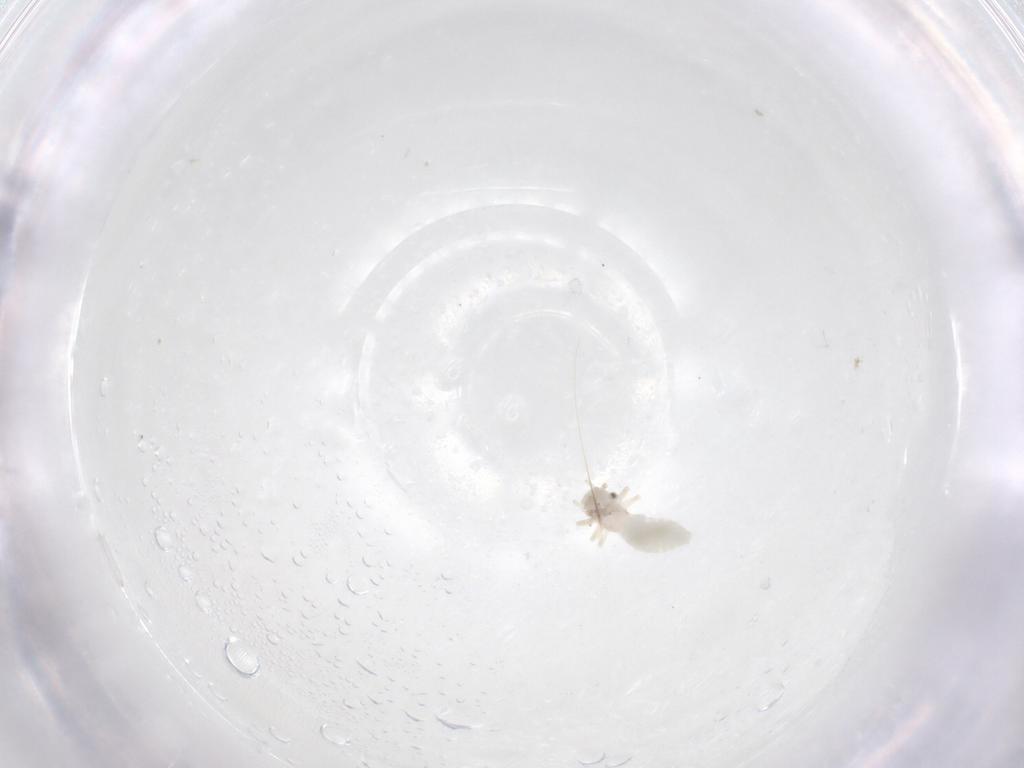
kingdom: Animalia
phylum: Arthropoda
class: Insecta
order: Psocodea
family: Caeciliusidae
